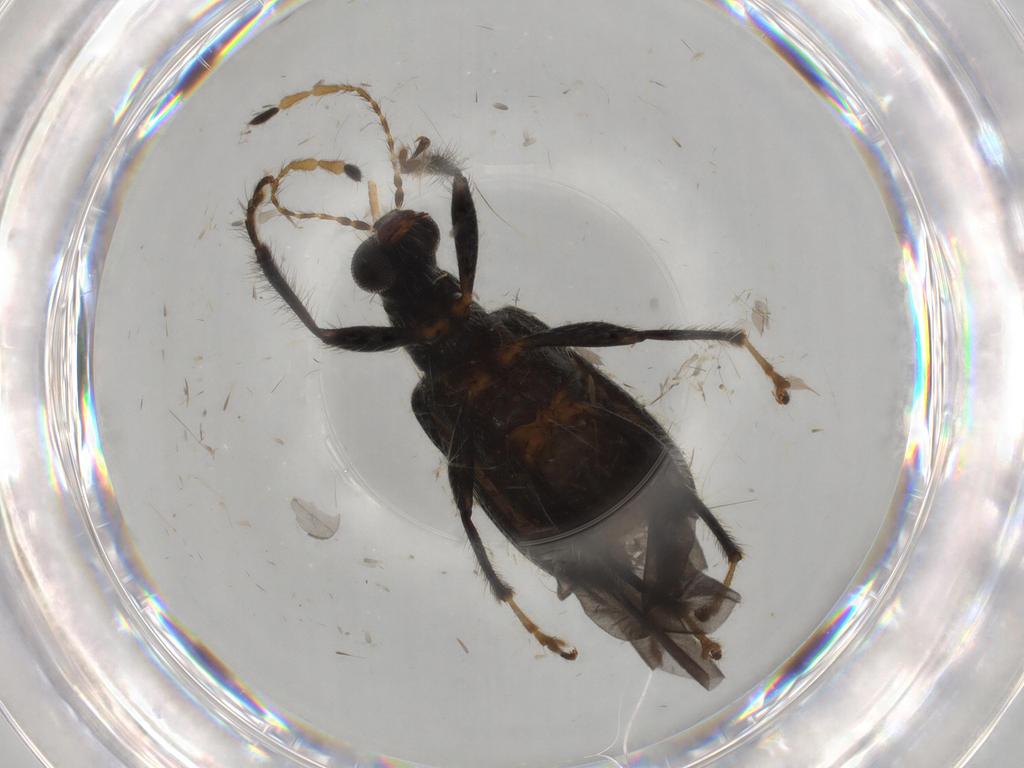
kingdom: Animalia
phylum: Arthropoda
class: Insecta
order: Coleoptera
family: Attelabidae
